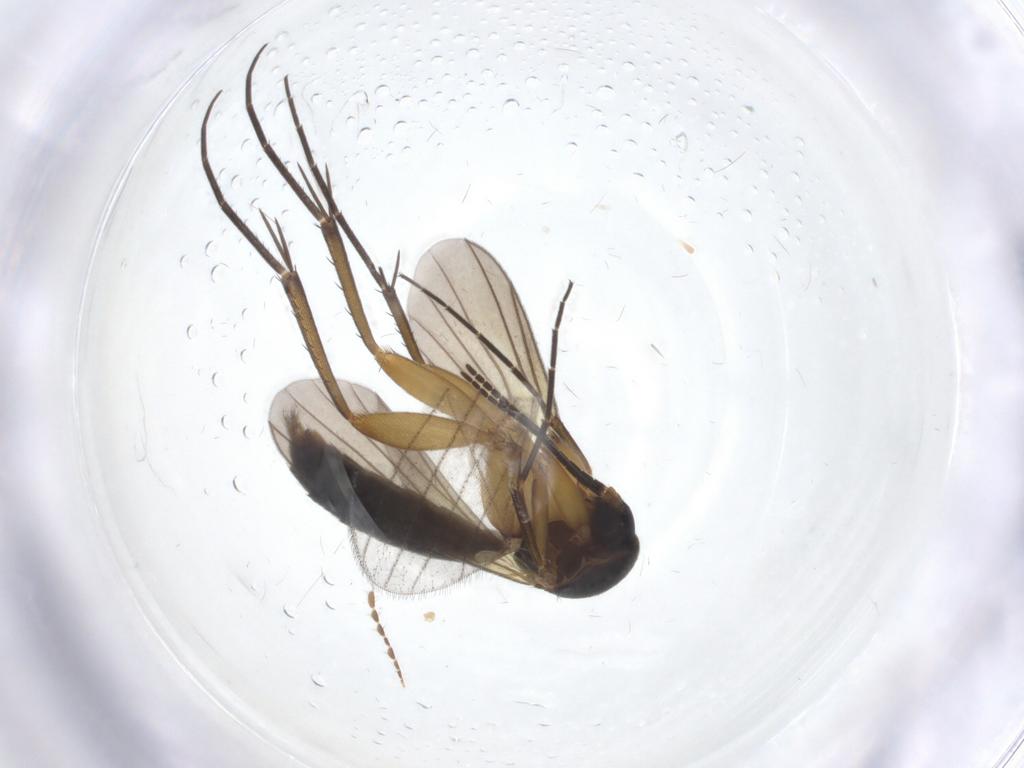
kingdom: Animalia
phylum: Arthropoda
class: Insecta
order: Diptera
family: Mycetophilidae
